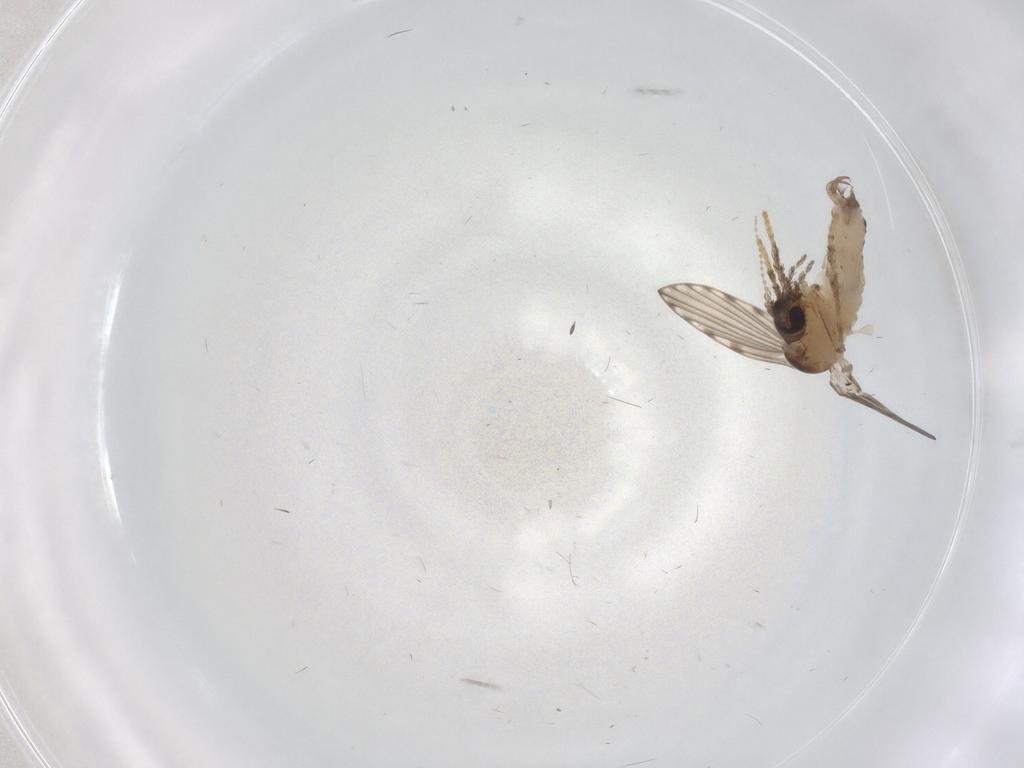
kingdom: Animalia
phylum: Arthropoda
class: Insecta
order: Diptera
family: Psychodidae
